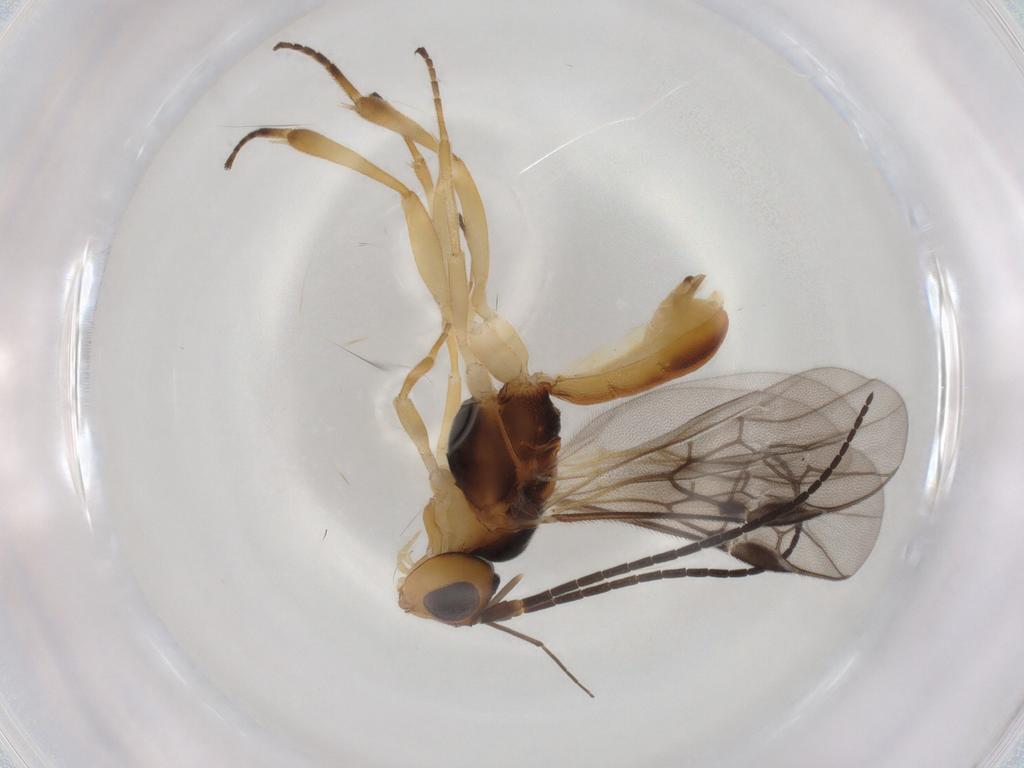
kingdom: Animalia
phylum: Arthropoda
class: Insecta
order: Hymenoptera
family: Braconidae
